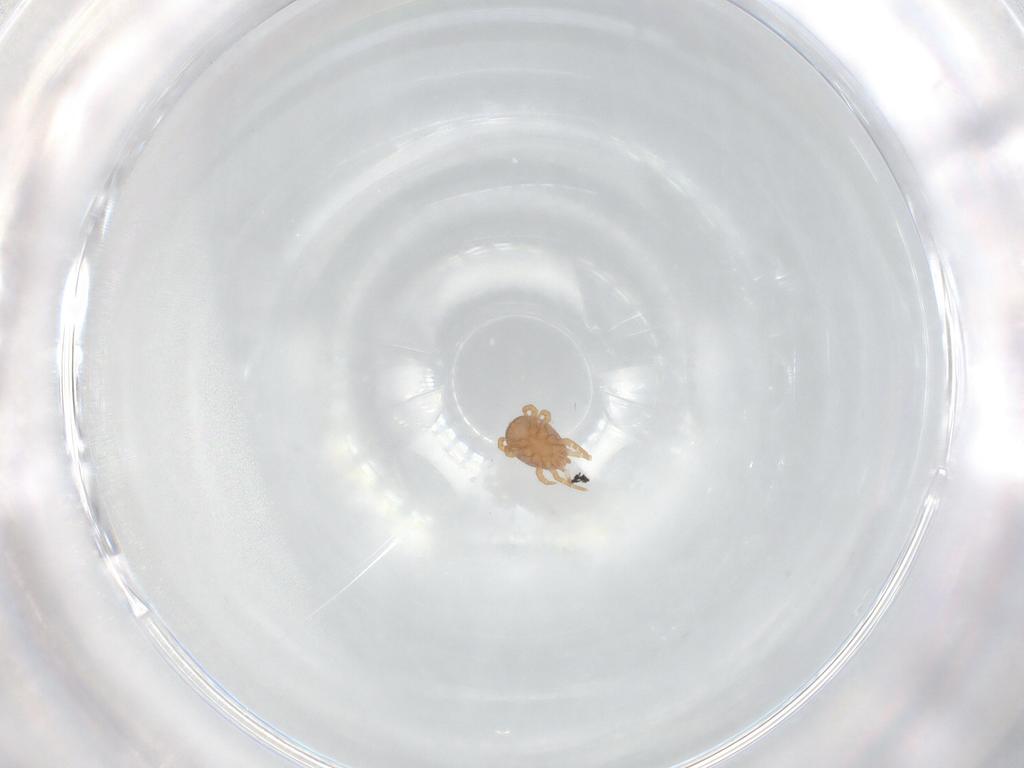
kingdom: Animalia
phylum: Arthropoda
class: Arachnida
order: Mesostigmata
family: Eviphididae
